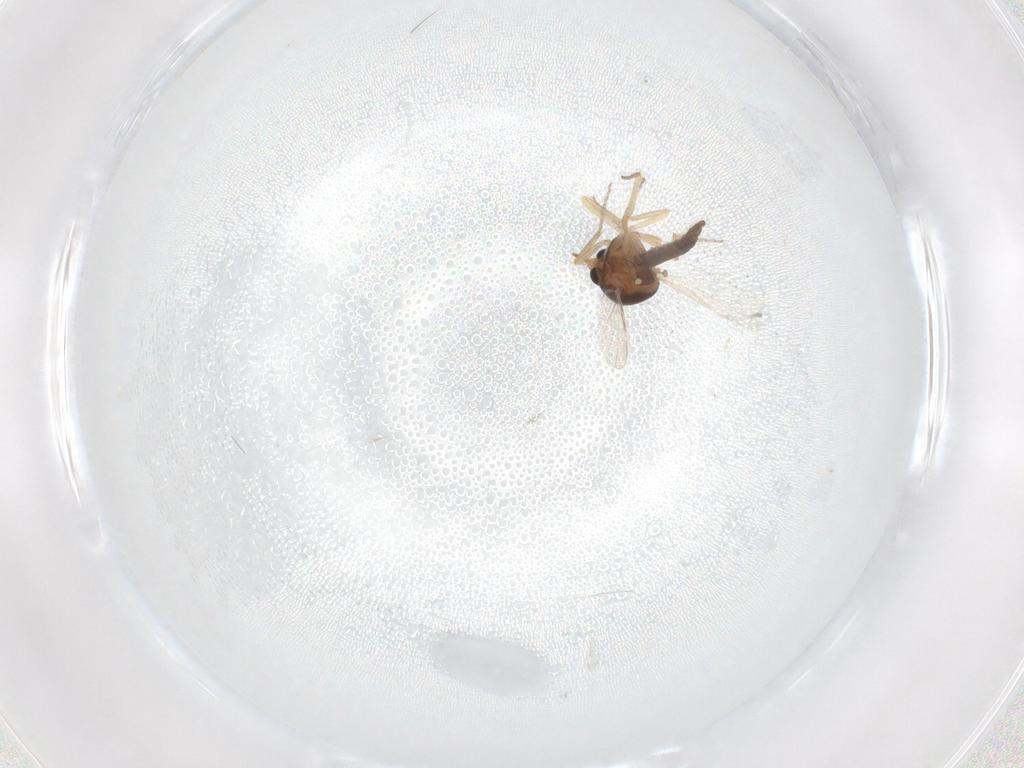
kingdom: Animalia
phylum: Arthropoda
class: Insecta
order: Diptera
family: Ceratopogonidae
